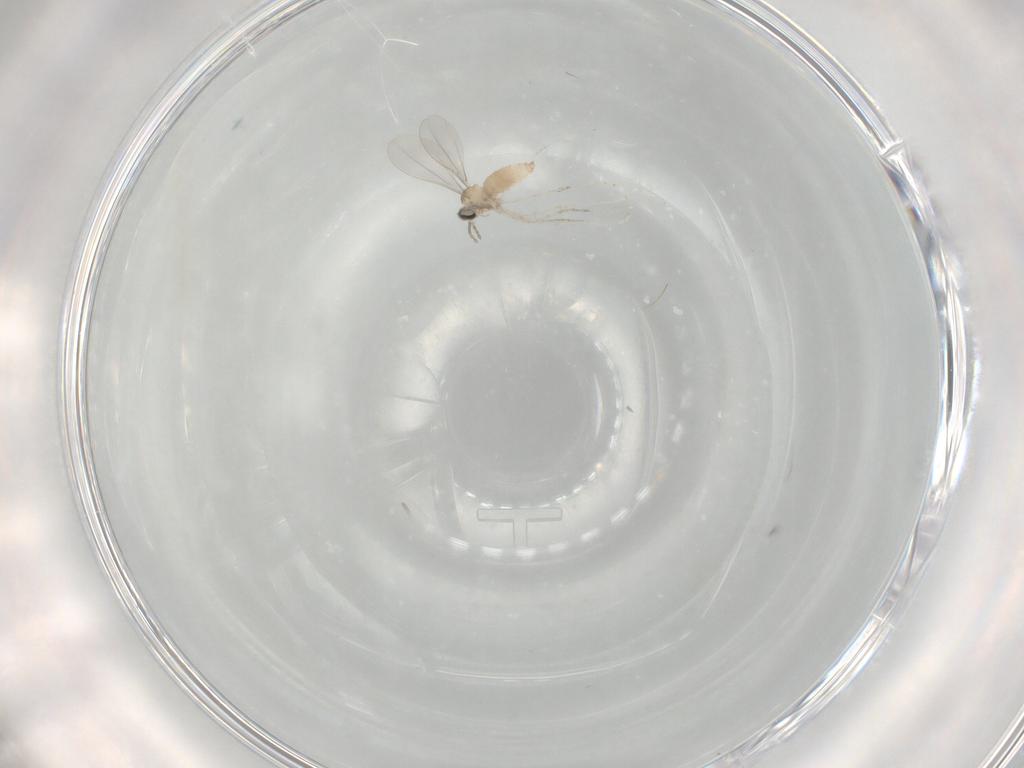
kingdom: Animalia
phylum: Arthropoda
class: Insecta
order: Diptera
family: Cecidomyiidae
